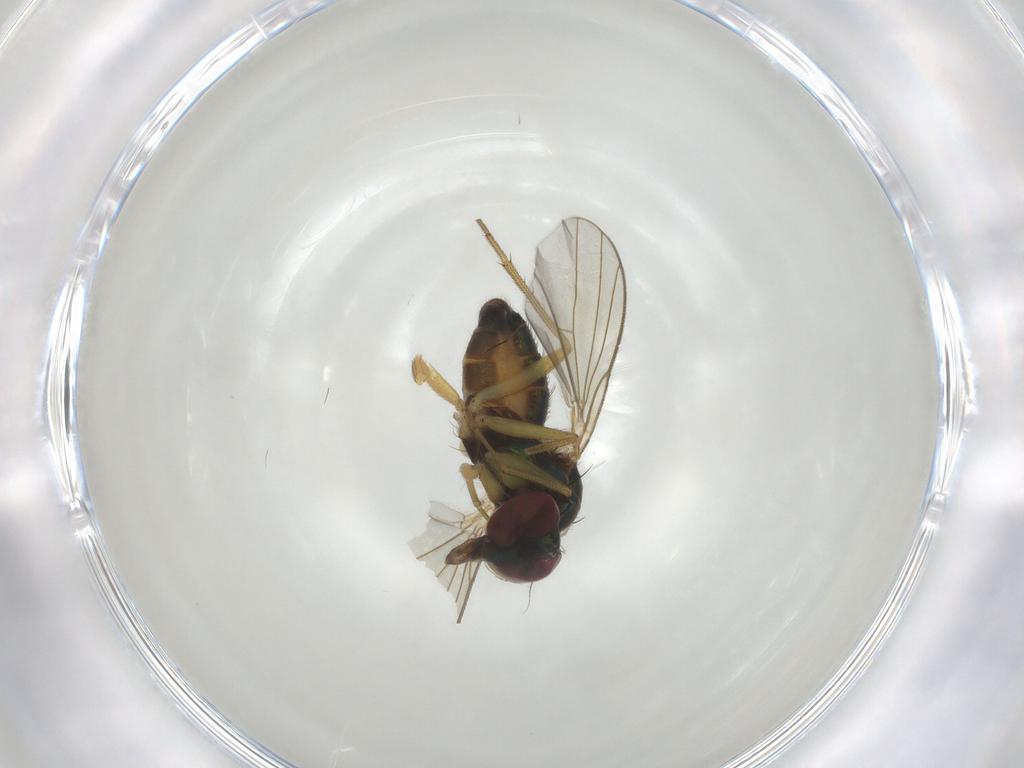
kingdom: Animalia
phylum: Arthropoda
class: Insecta
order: Diptera
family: Dolichopodidae
